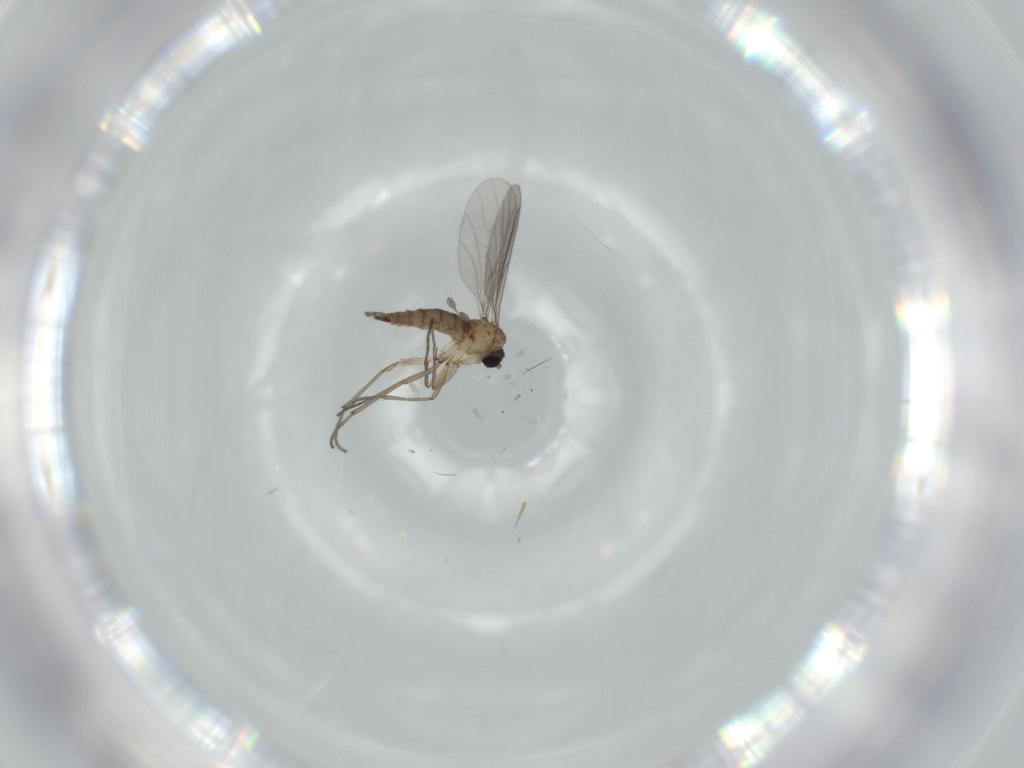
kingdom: Animalia
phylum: Arthropoda
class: Insecta
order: Diptera
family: Sciaridae
